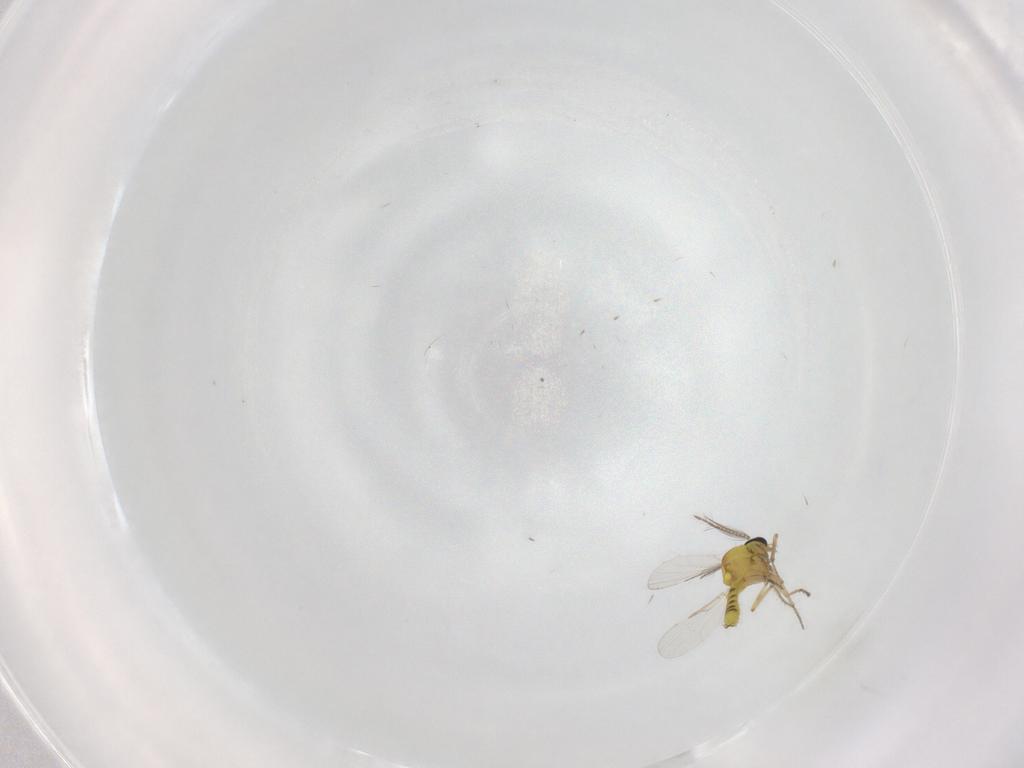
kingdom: Animalia
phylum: Arthropoda
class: Insecta
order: Diptera
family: Ceratopogonidae
